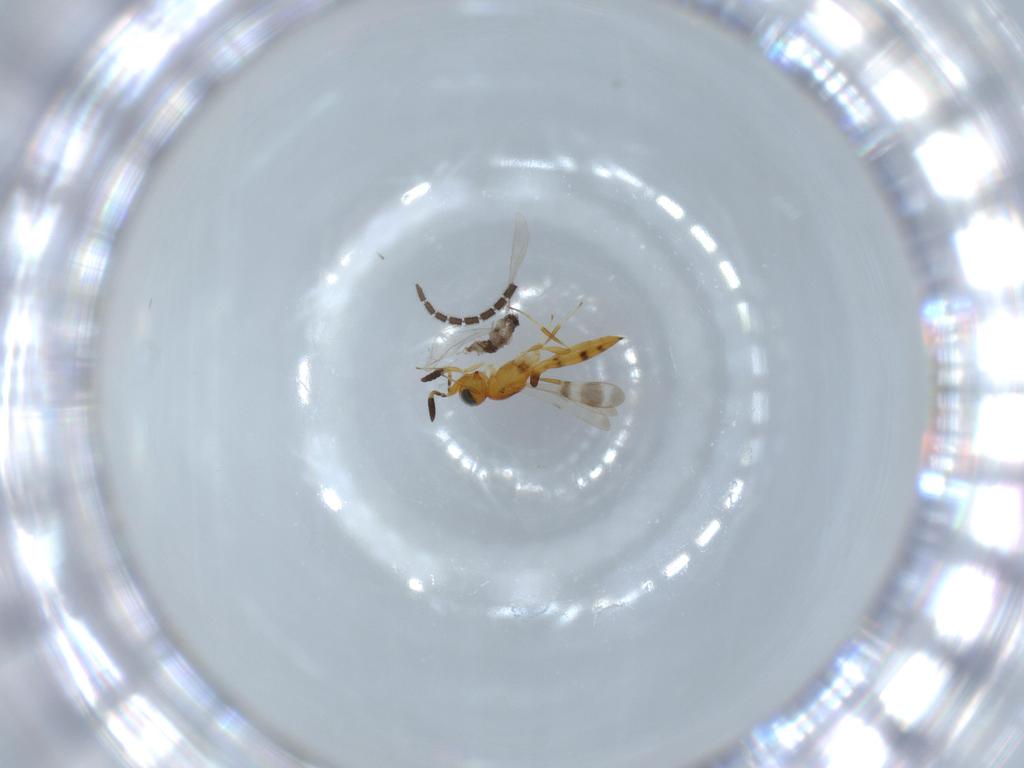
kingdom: Animalia
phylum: Arthropoda
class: Insecta
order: Diptera
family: Cecidomyiidae
